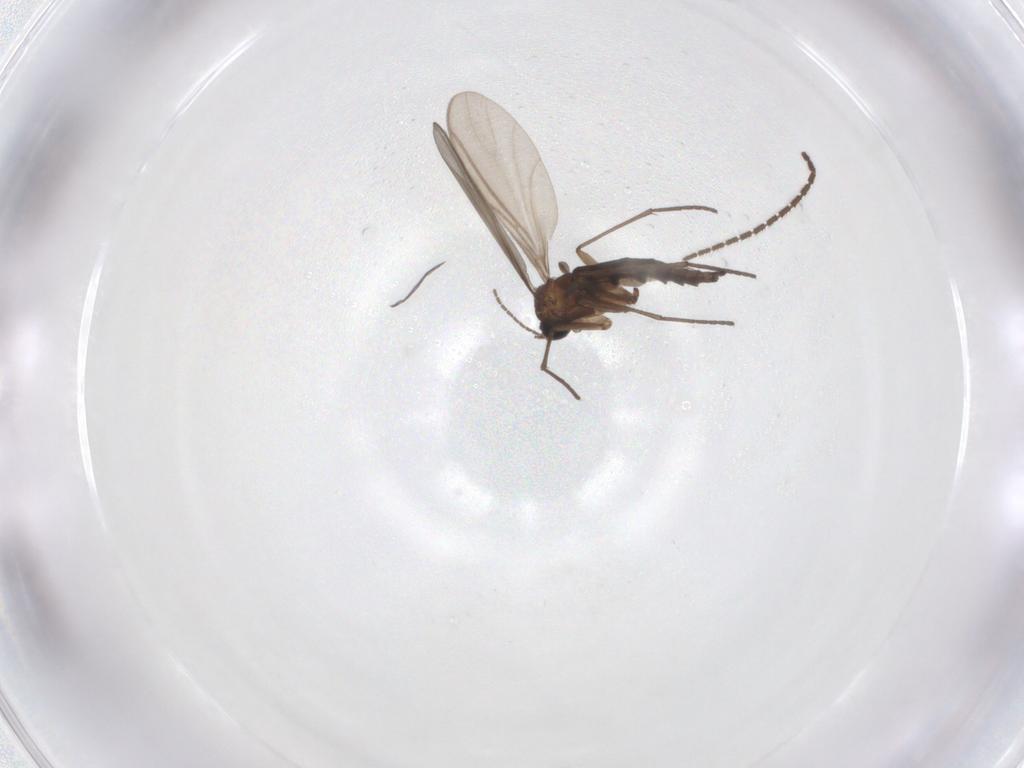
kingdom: Animalia
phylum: Arthropoda
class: Insecta
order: Diptera
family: Sciaridae
